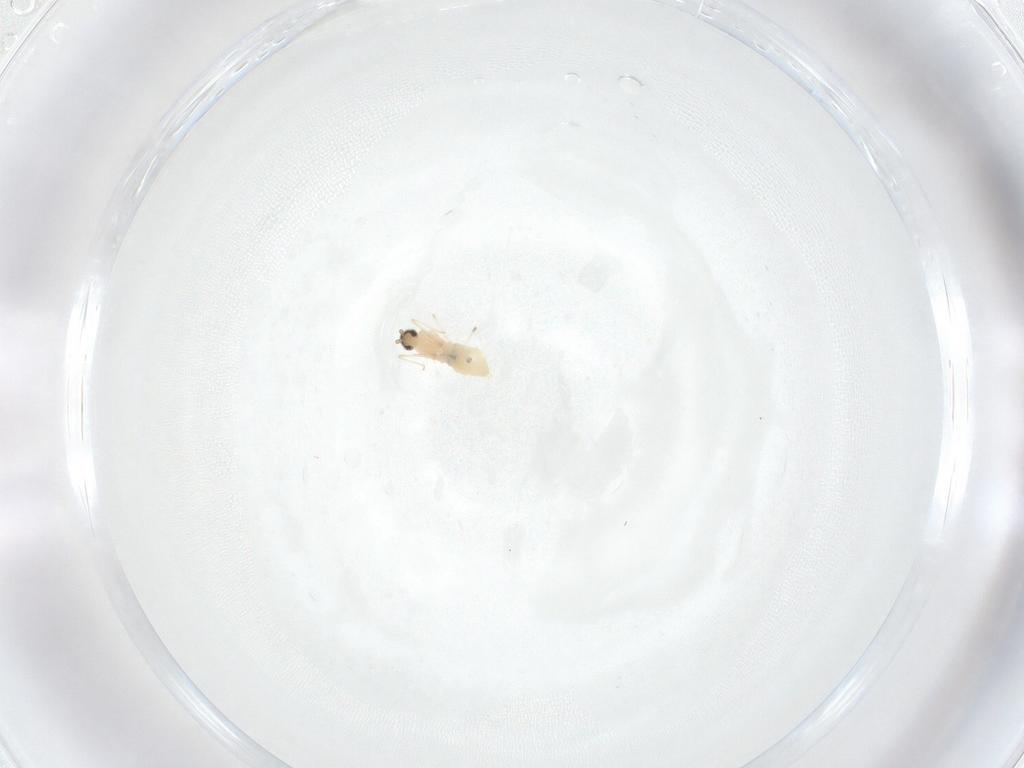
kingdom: Animalia
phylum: Arthropoda
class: Insecta
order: Diptera
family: Cecidomyiidae
